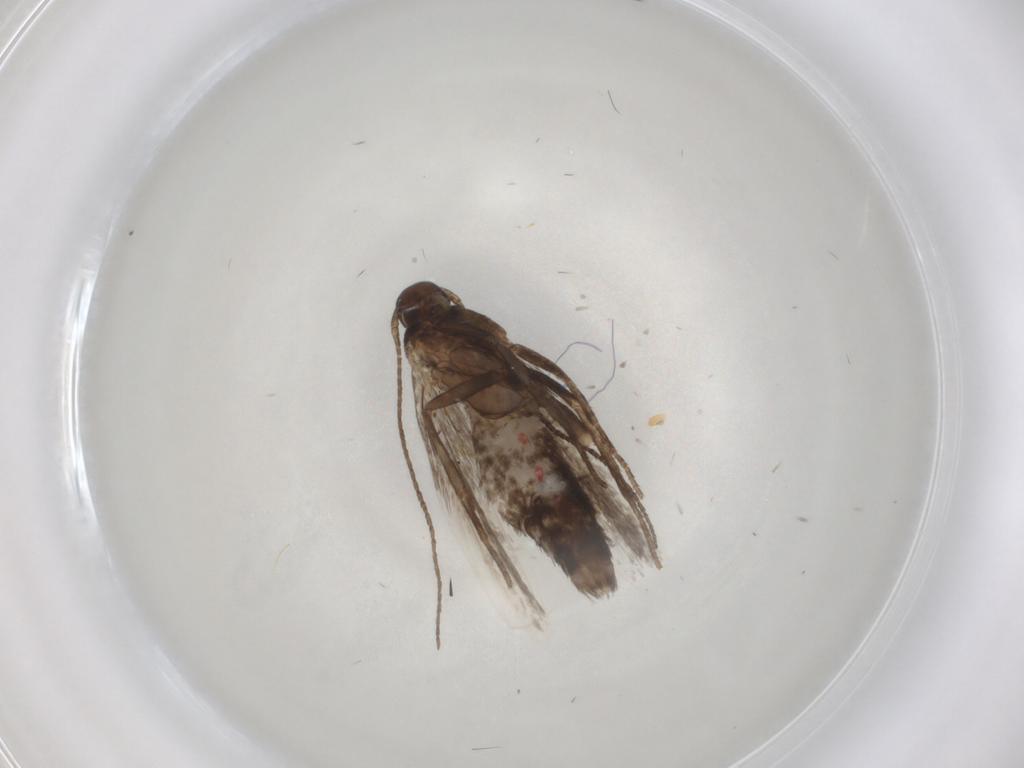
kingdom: Animalia
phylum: Arthropoda
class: Insecta
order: Lepidoptera
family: Gelechiidae
